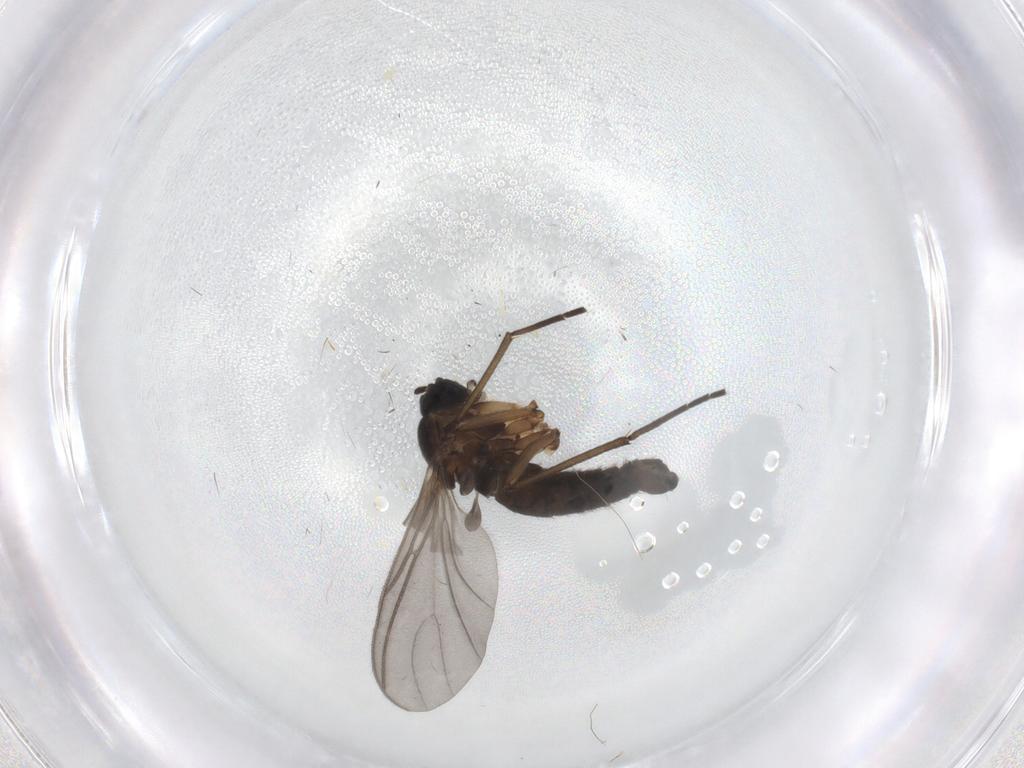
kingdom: Animalia
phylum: Arthropoda
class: Insecta
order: Diptera
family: Sciaridae
